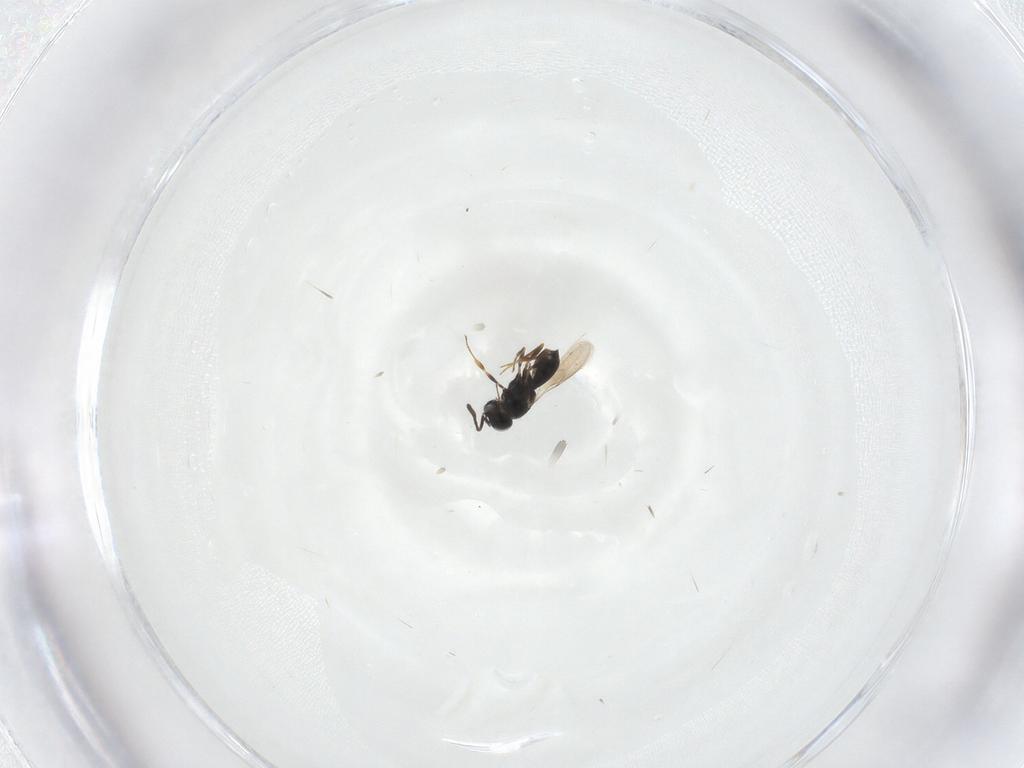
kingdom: Animalia
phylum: Arthropoda
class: Insecta
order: Hymenoptera
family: Scelionidae
